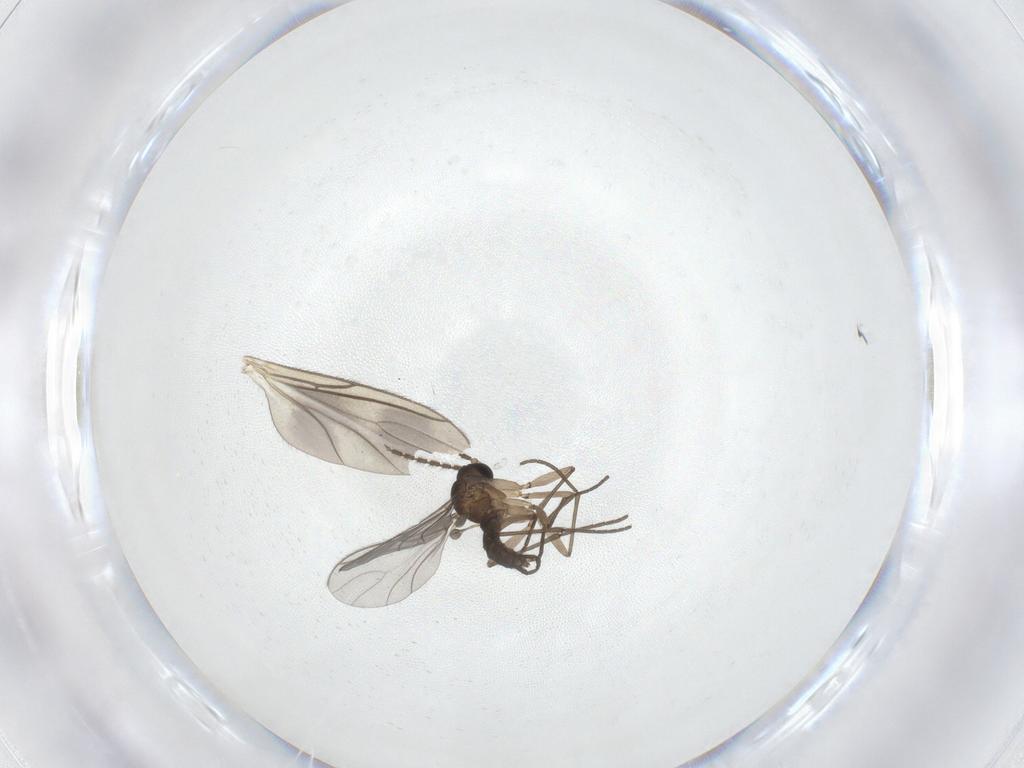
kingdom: Animalia
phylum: Arthropoda
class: Insecta
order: Diptera
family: Sciaridae
